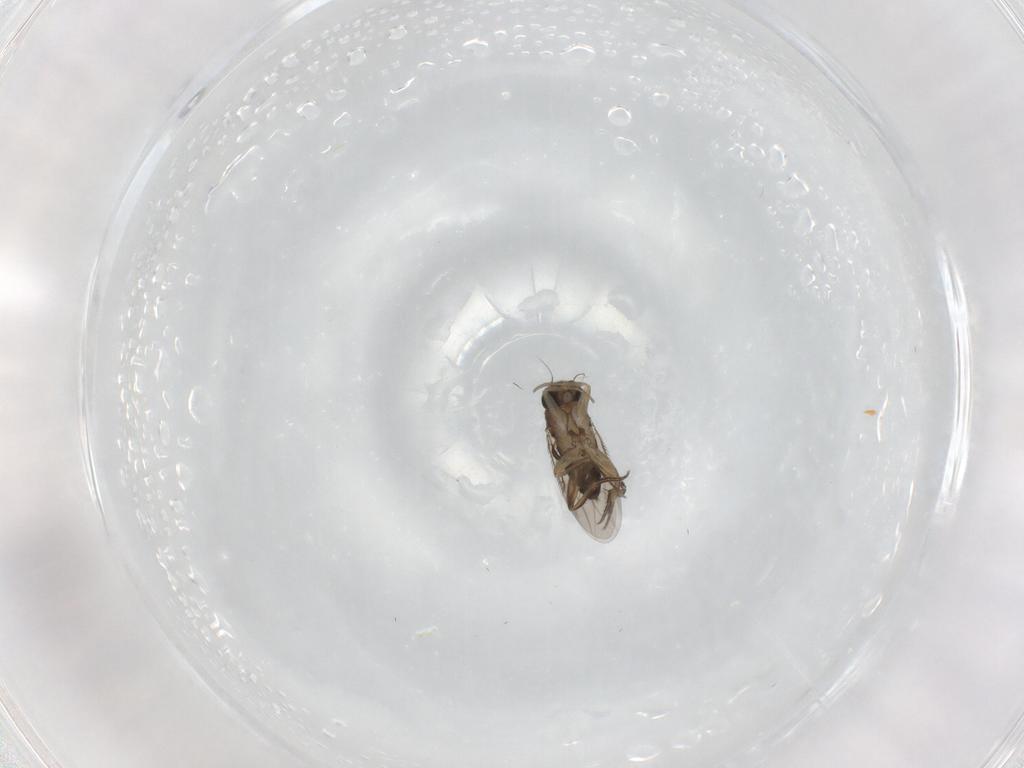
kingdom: Animalia
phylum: Arthropoda
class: Insecta
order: Diptera
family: Phoridae
